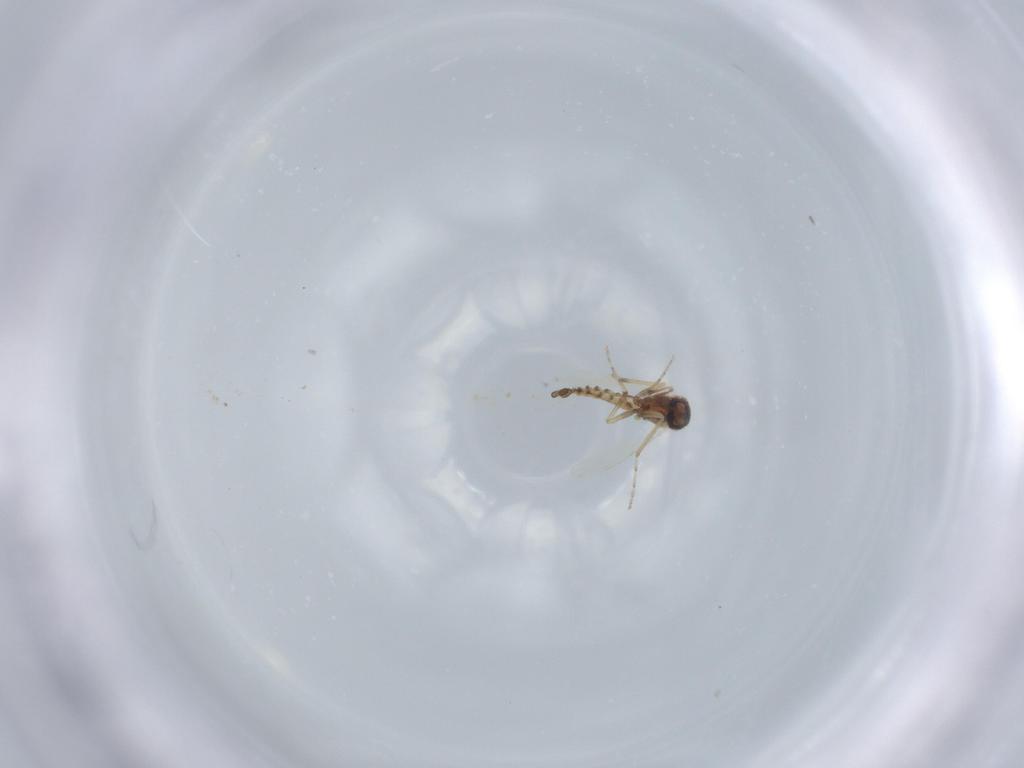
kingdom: Animalia
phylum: Arthropoda
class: Insecta
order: Diptera
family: Ceratopogonidae
